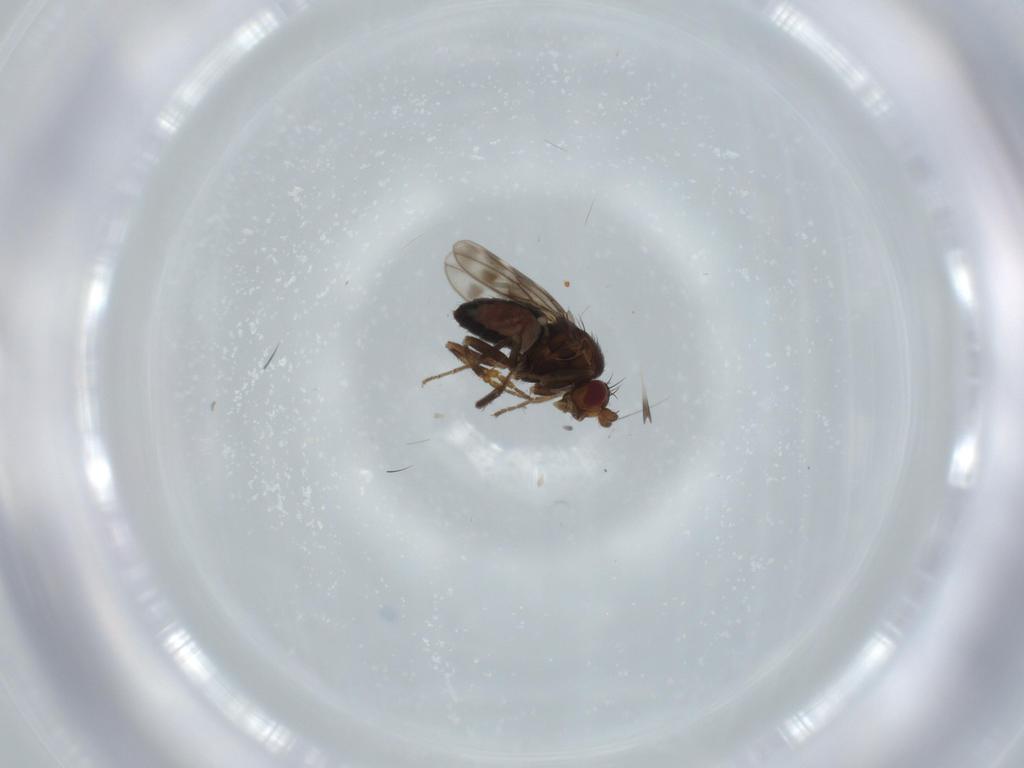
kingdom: Animalia
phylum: Arthropoda
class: Insecta
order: Diptera
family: Sphaeroceridae
